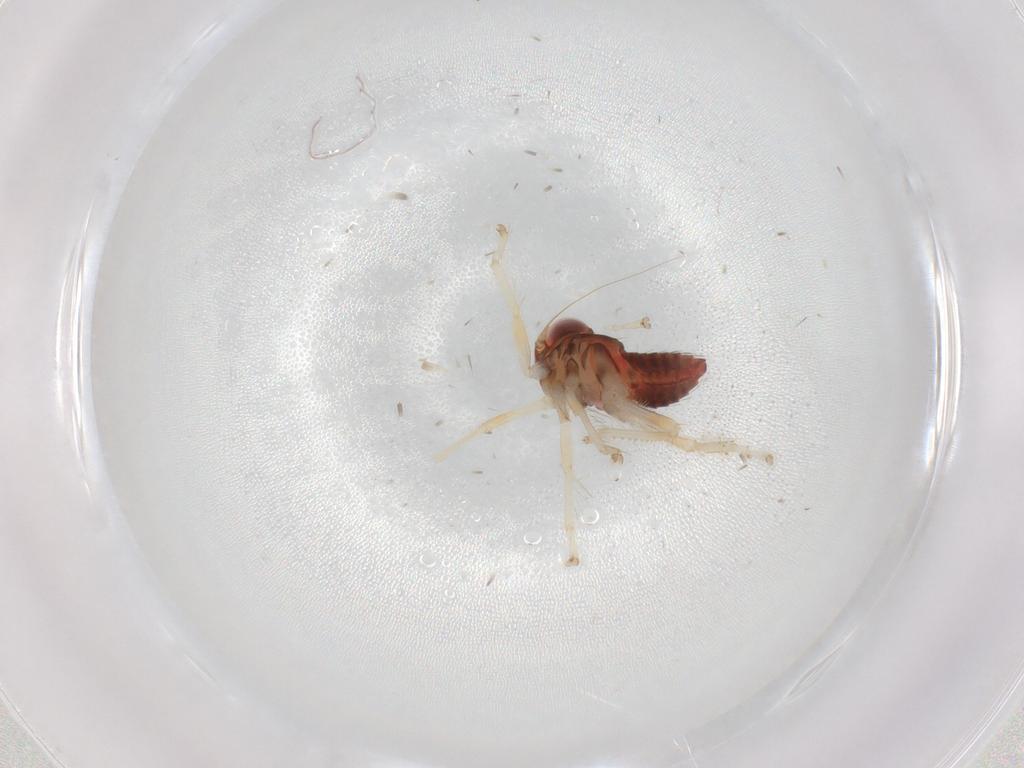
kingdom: Animalia
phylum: Arthropoda
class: Insecta
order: Hemiptera
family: Cicadellidae
